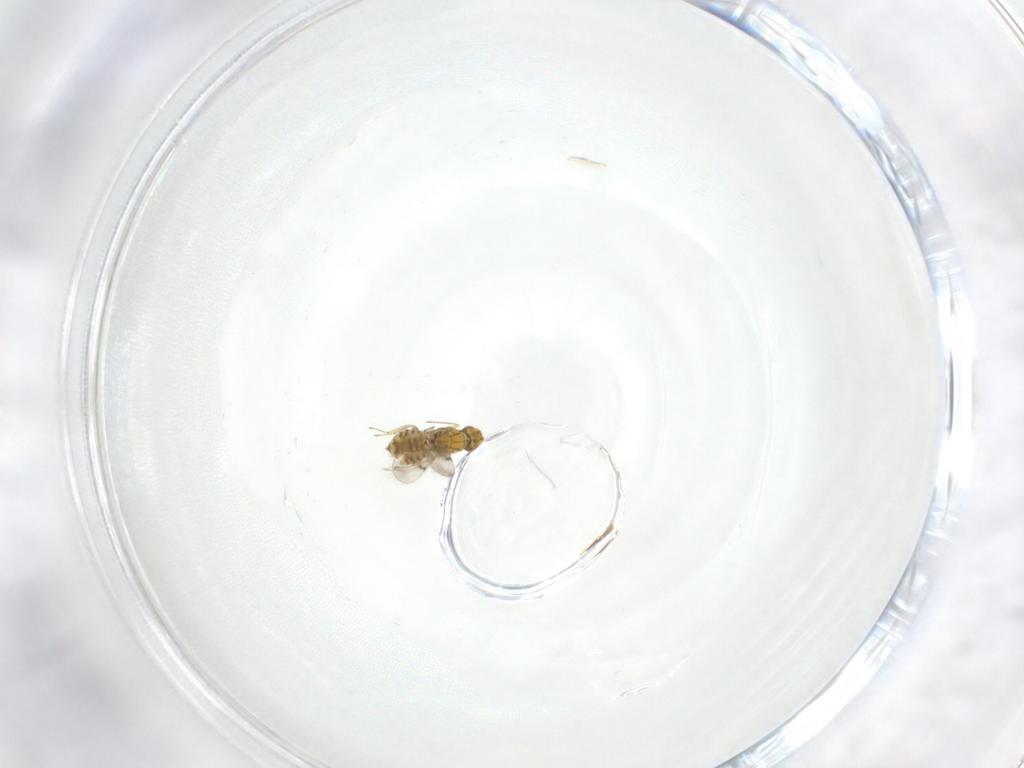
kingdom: Animalia
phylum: Arthropoda
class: Insecta
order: Hymenoptera
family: Eulophidae
